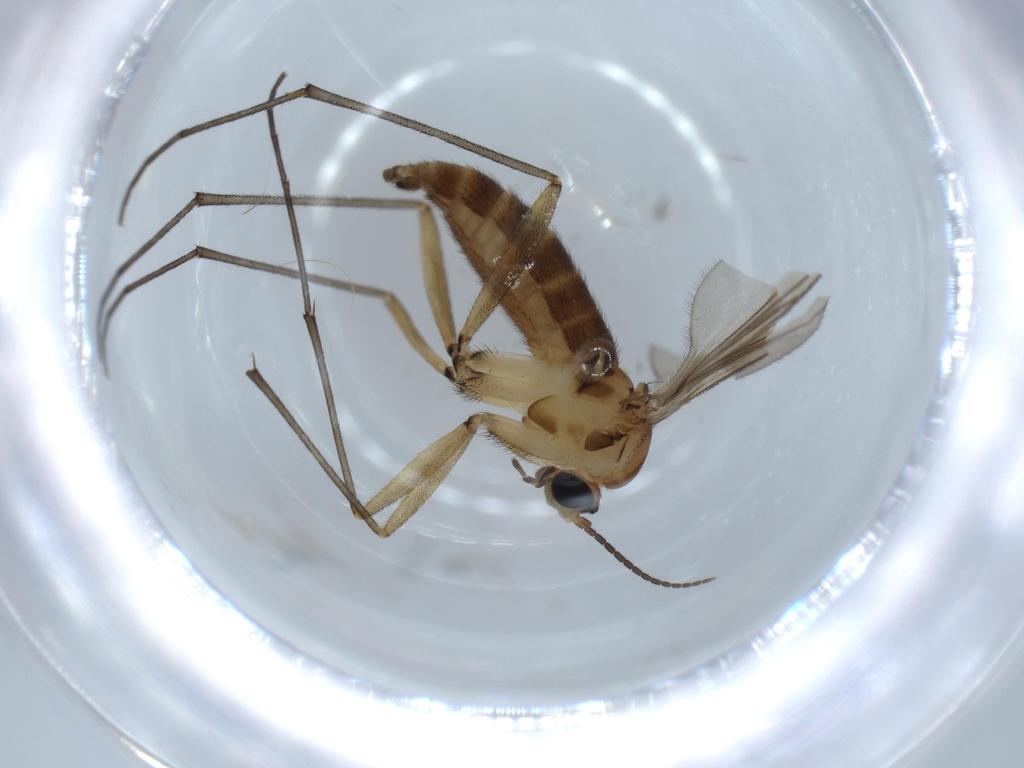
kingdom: Animalia
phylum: Arthropoda
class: Insecta
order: Diptera
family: Sciaridae
